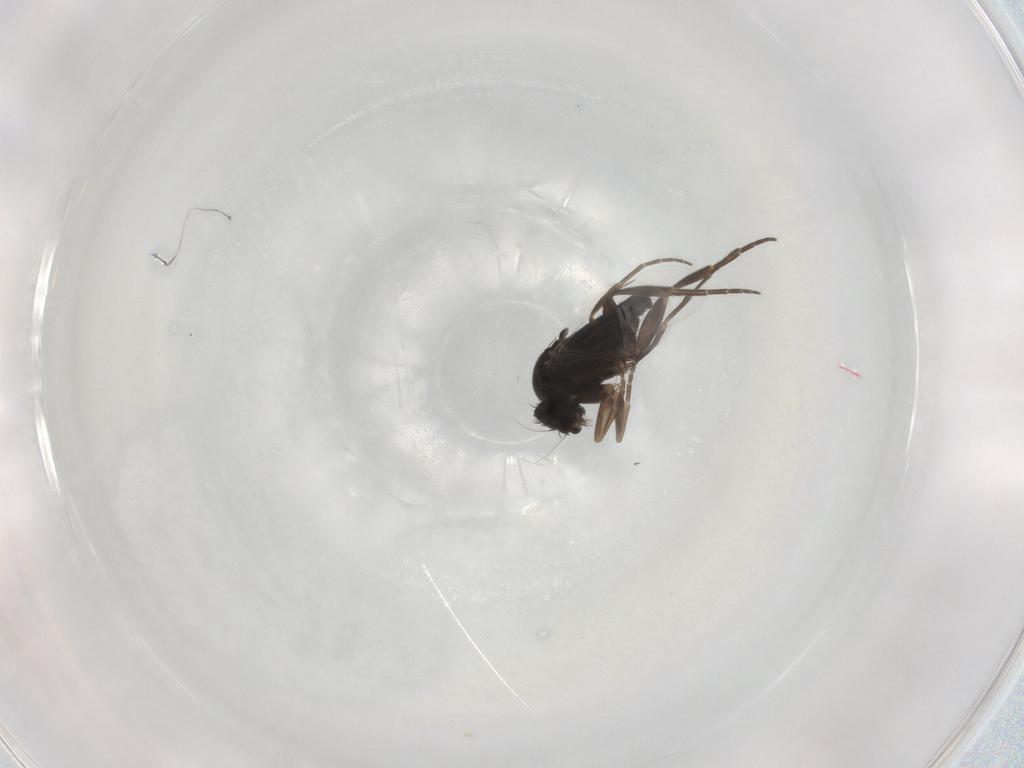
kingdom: Animalia
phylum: Arthropoda
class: Insecta
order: Diptera
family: Phoridae
